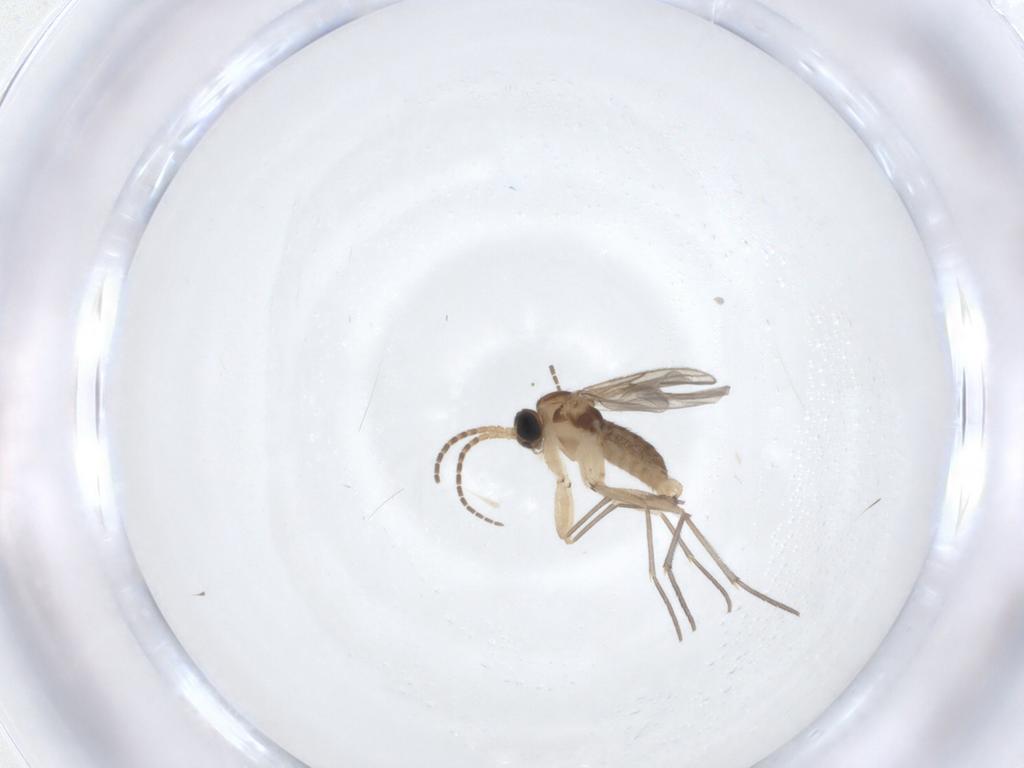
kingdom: Animalia
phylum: Arthropoda
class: Insecta
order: Diptera
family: Sciaridae
